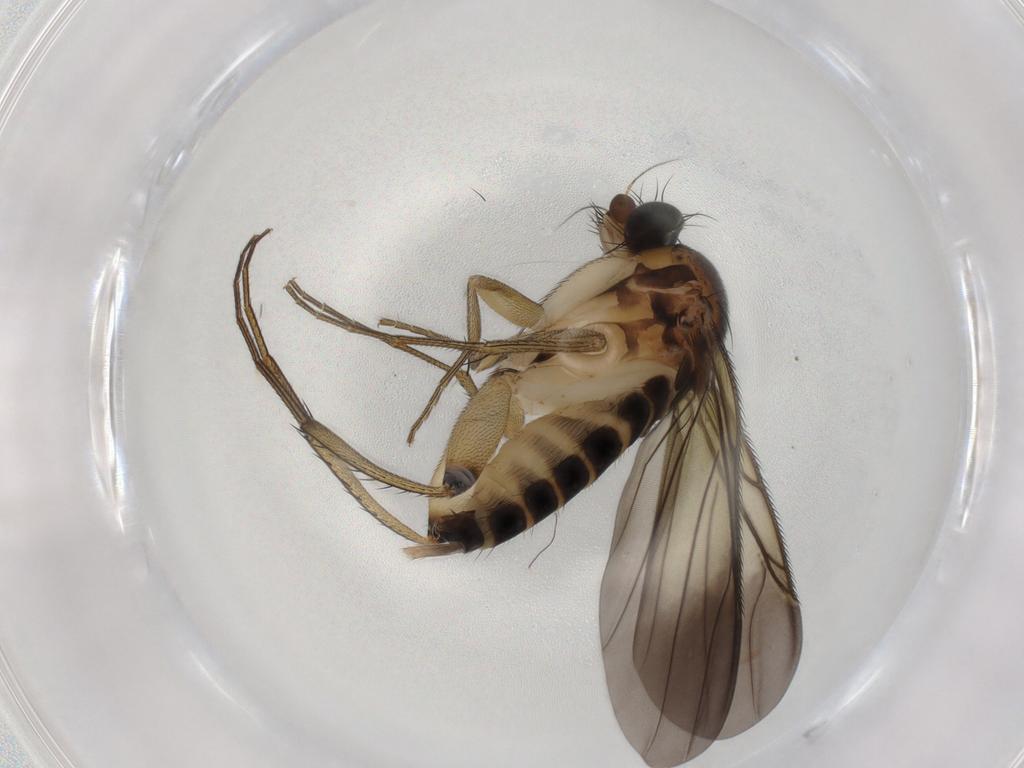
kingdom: Animalia
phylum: Arthropoda
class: Insecta
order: Diptera
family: Phoridae
